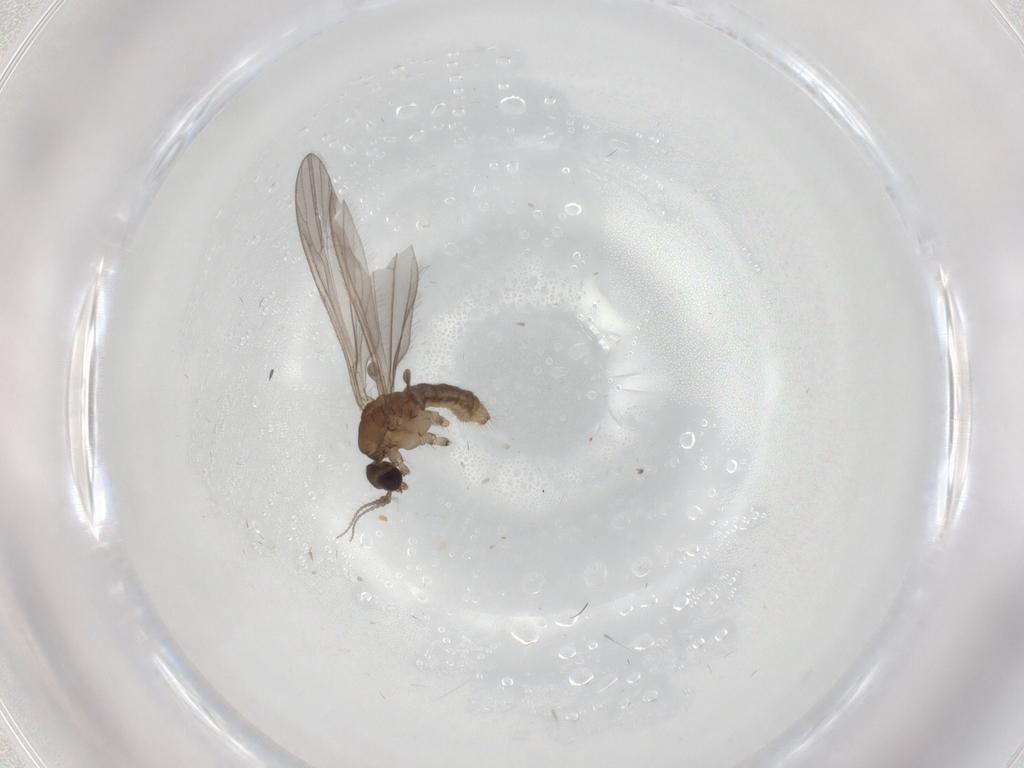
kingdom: Animalia
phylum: Arthropoda
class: Insecta
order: Diptera
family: Limoniidae
